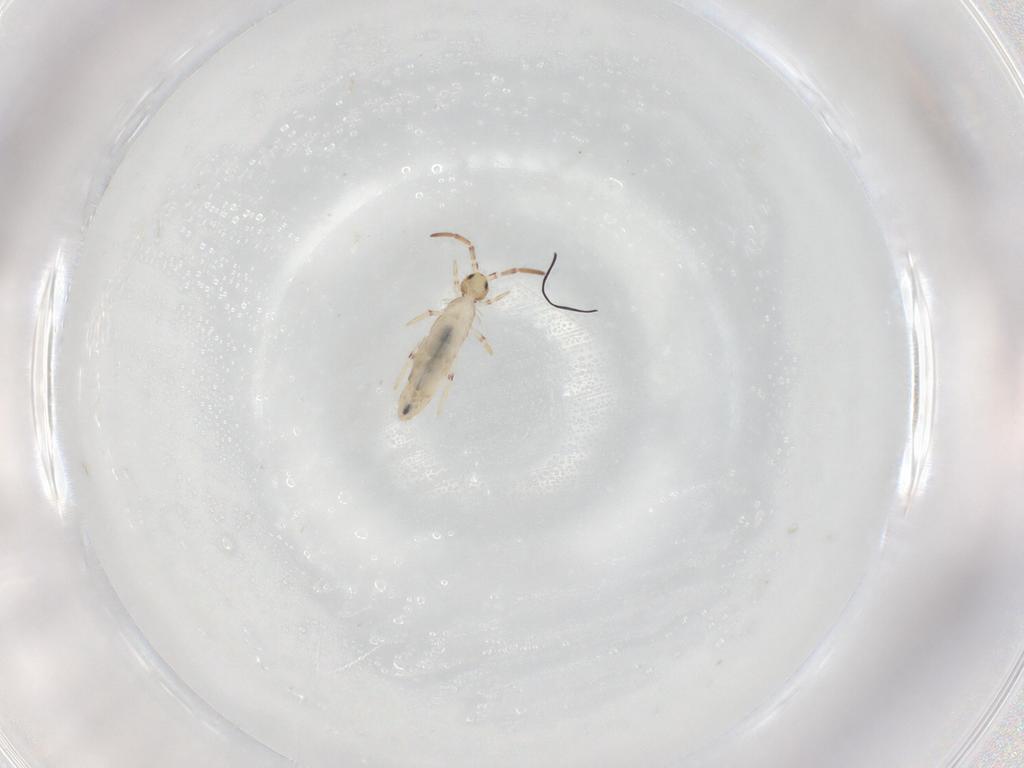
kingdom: Animalia
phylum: Arthropoda
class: Collembola
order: Entomobryomorpha
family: Entomobryidae
